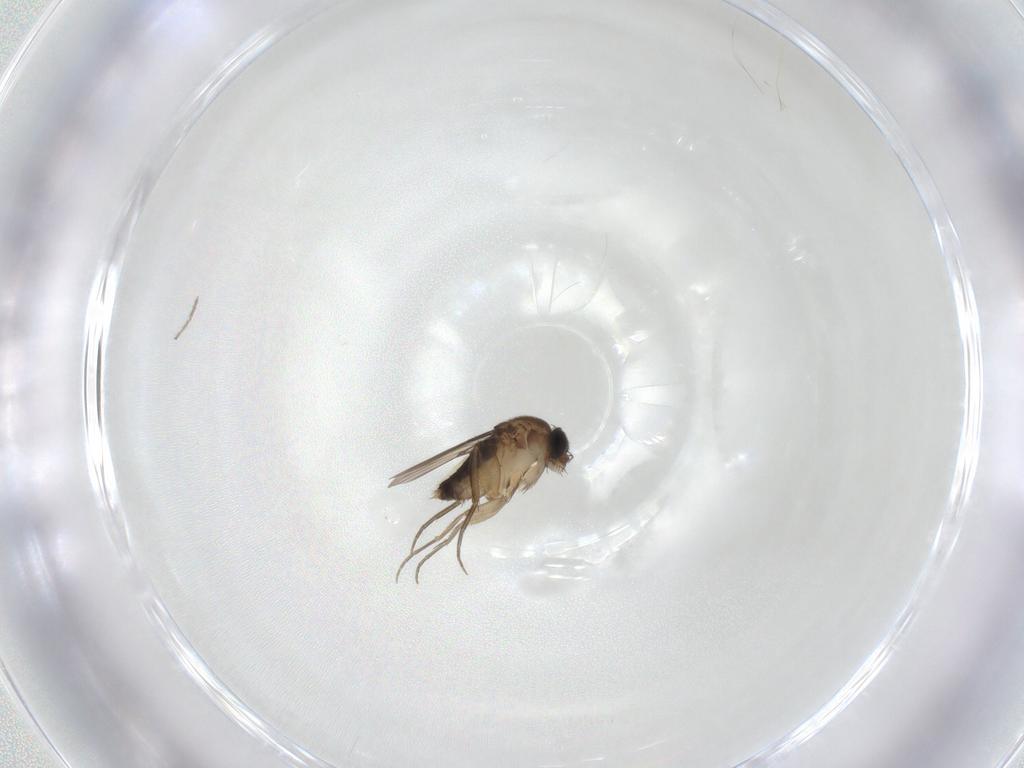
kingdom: Animalia
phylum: Arthropoda
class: Insecta
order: Diptera
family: Phoridae
